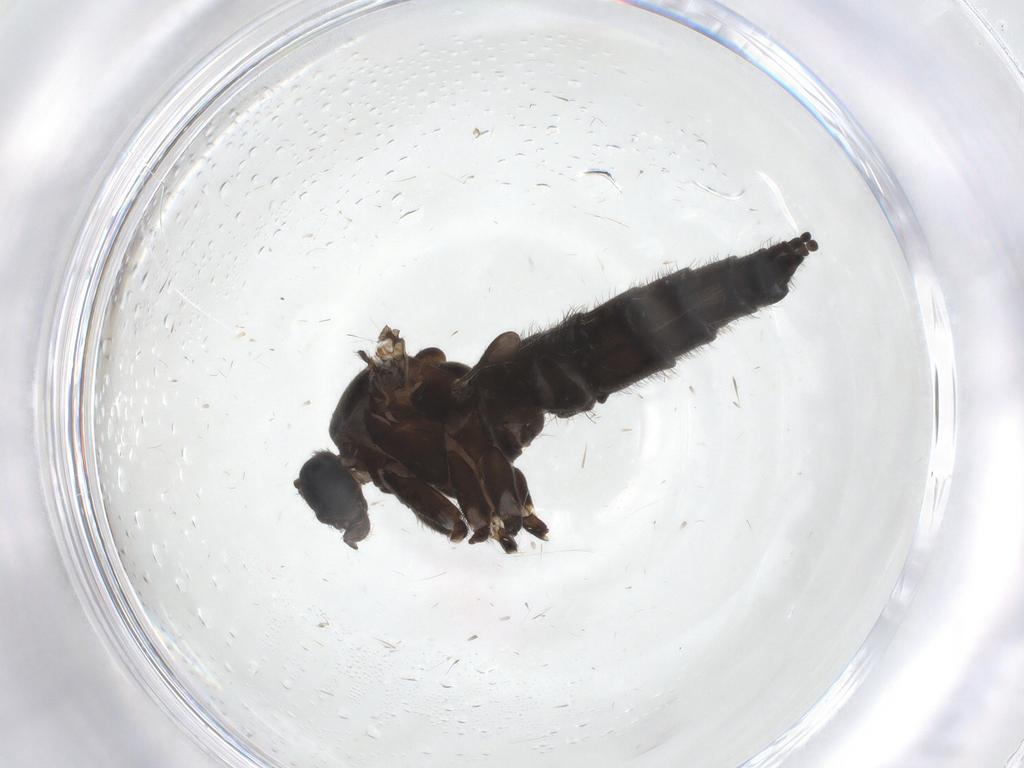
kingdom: Animalia
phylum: Arthropoda
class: Insecta
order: Diptera
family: Sciaridae
